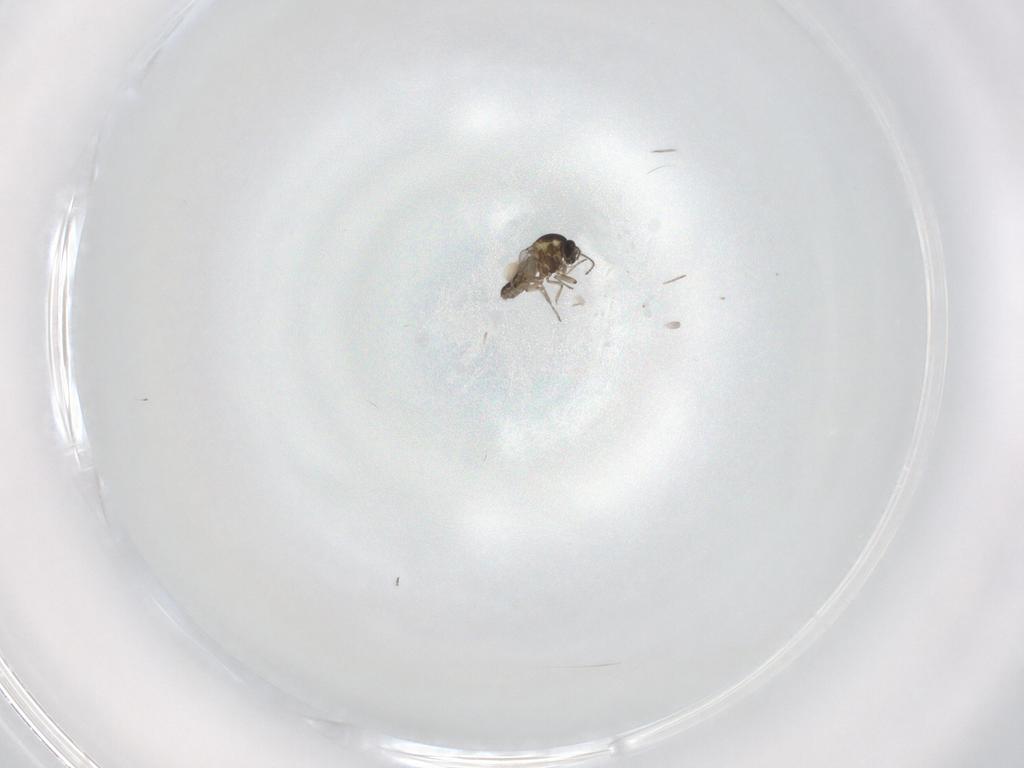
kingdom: Animalia
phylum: Arthropoda
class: Insecta
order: Diptera
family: Ceratopogonidae
